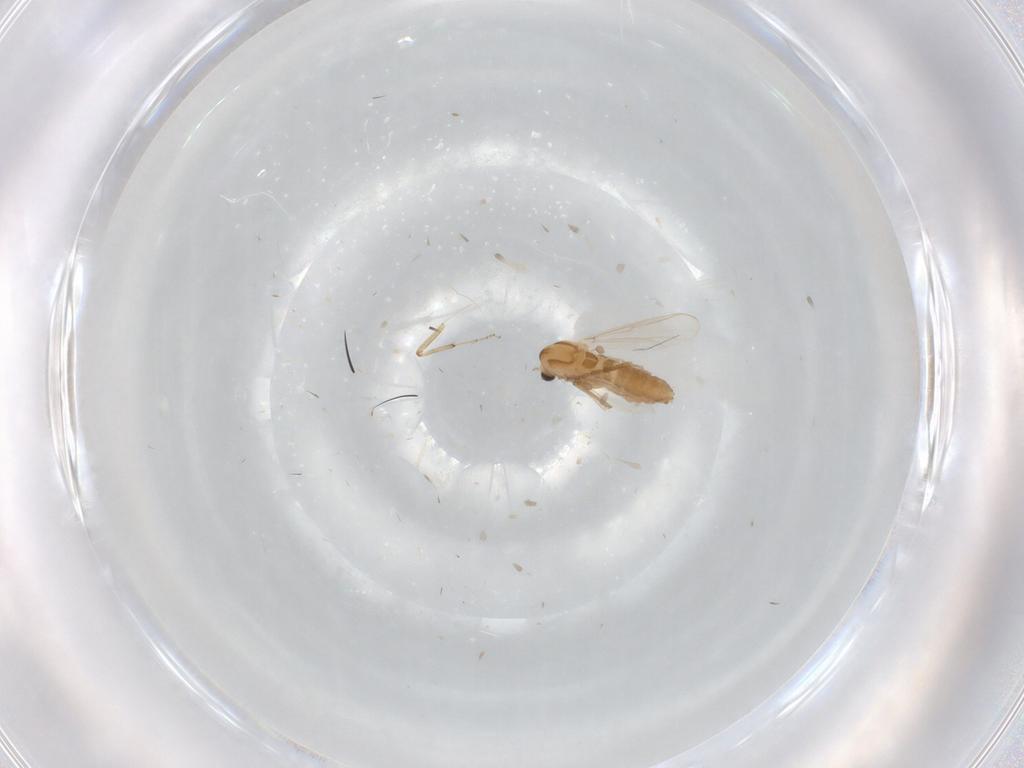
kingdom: Animalia
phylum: Arthropoda
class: Insecta
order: Diptera
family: Chironomidae
